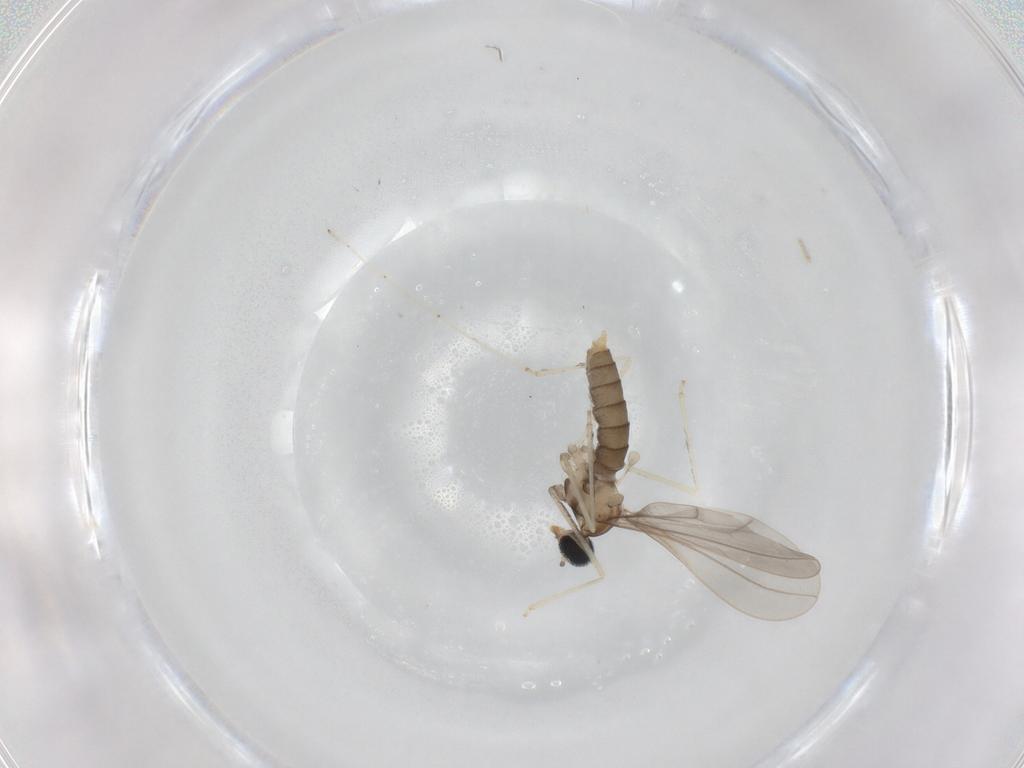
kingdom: Animalia
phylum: Arthropoda
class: Insecta
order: Diptera
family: Cecidomyiidae
